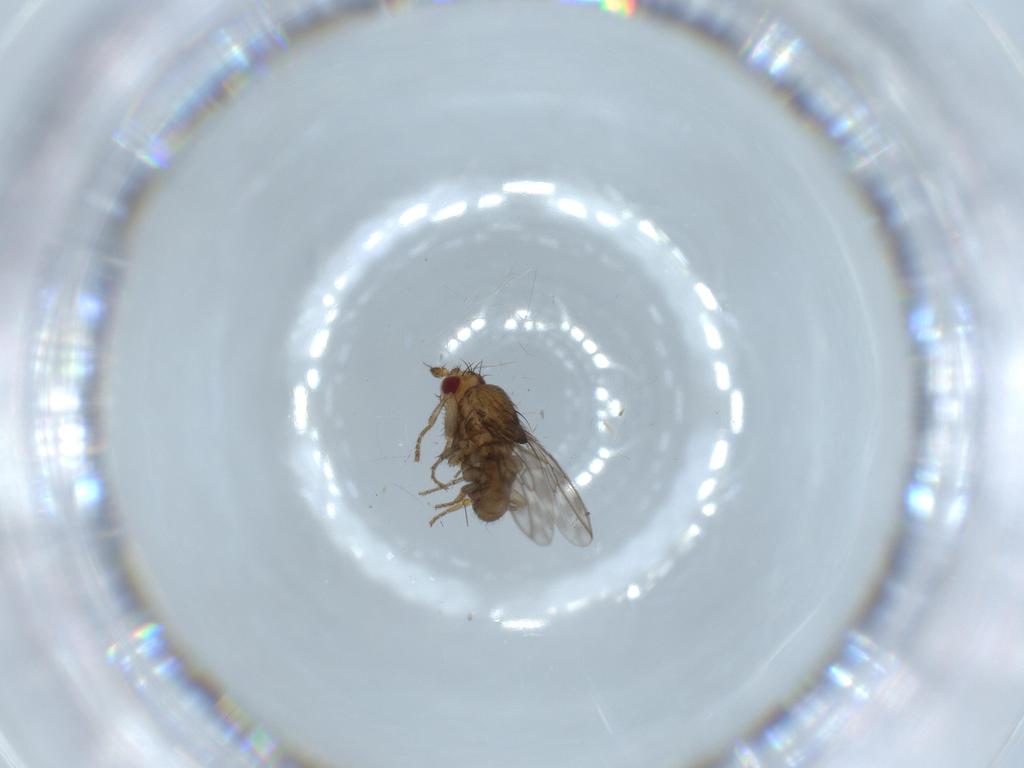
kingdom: Animalia
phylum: Arthropoda
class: Insecta
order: Diptera
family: Sphaeroceridae
